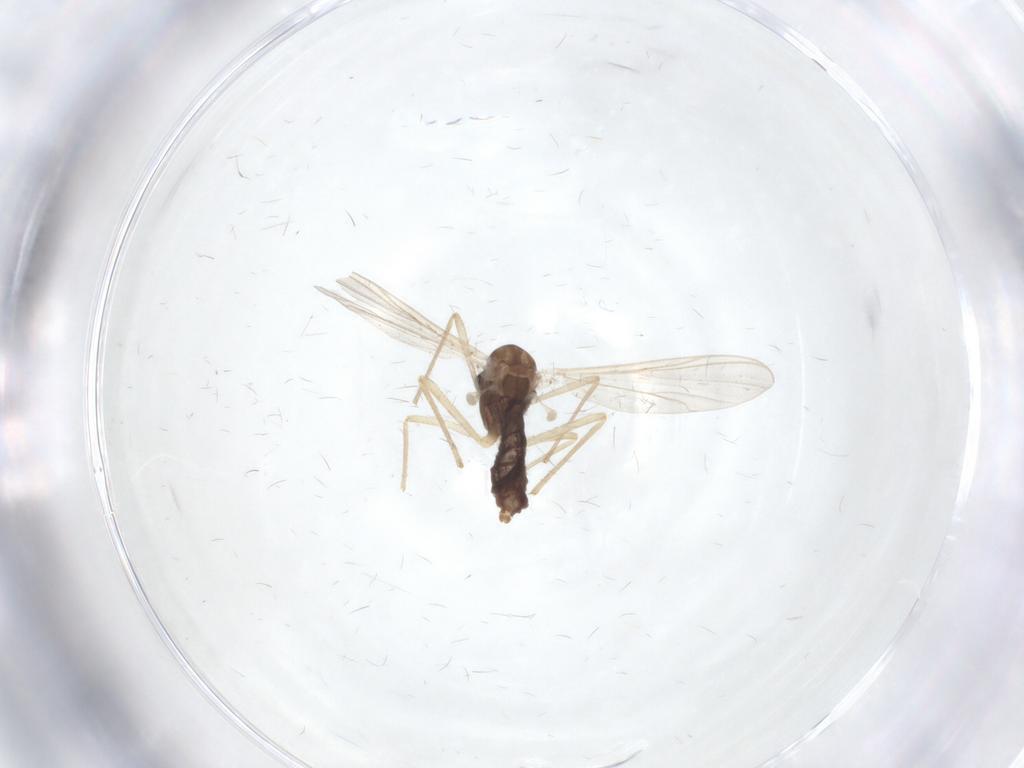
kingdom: Animalia
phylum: Arthropoda
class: Insecta
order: Diptera
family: Chironomidae
